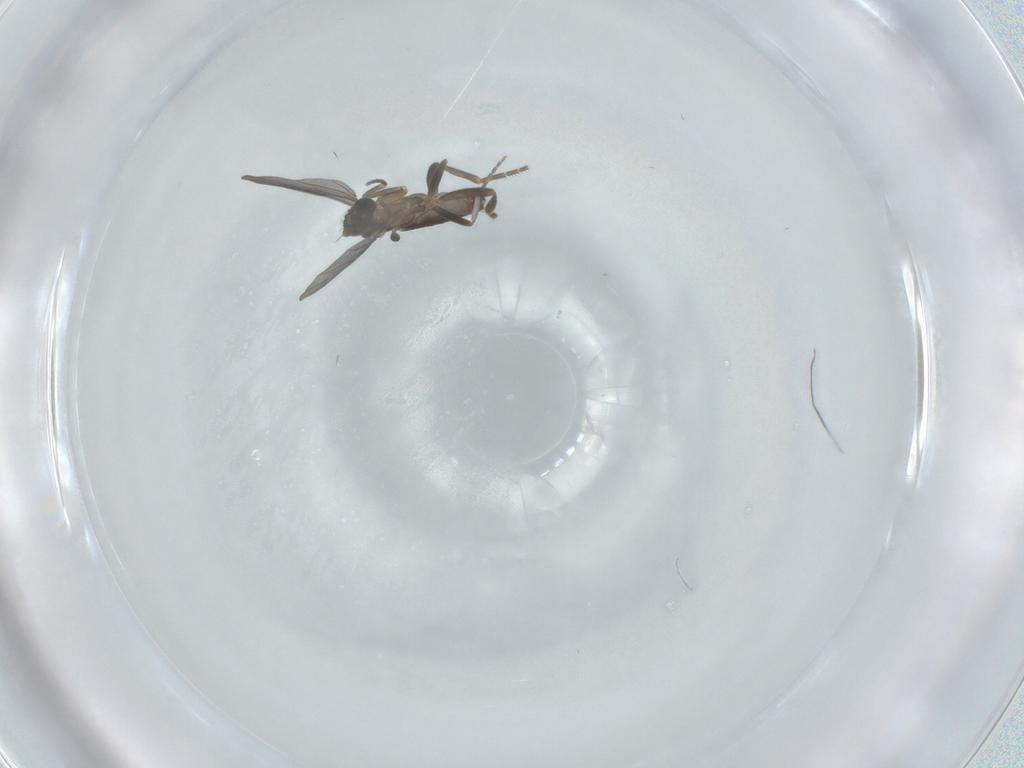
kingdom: Animalia
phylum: Arthropoda
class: Insecta
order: Diptera
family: Phoridae
